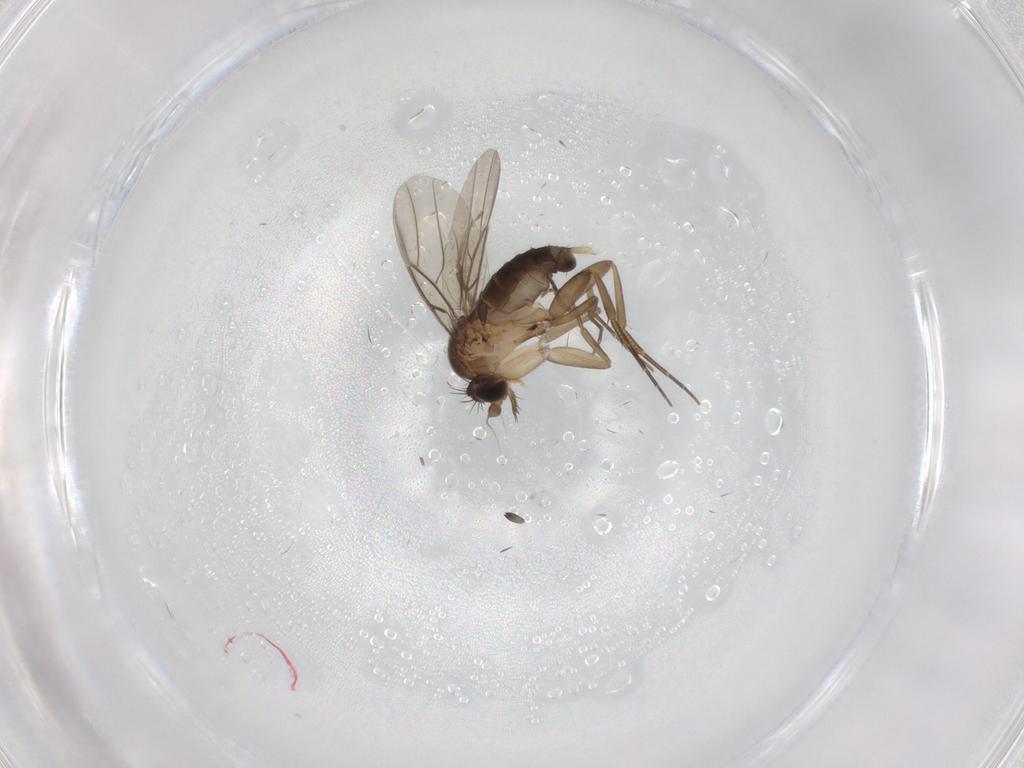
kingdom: Animalia
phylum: Arthropoda
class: Insecta
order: Diptera
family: Phoridae
